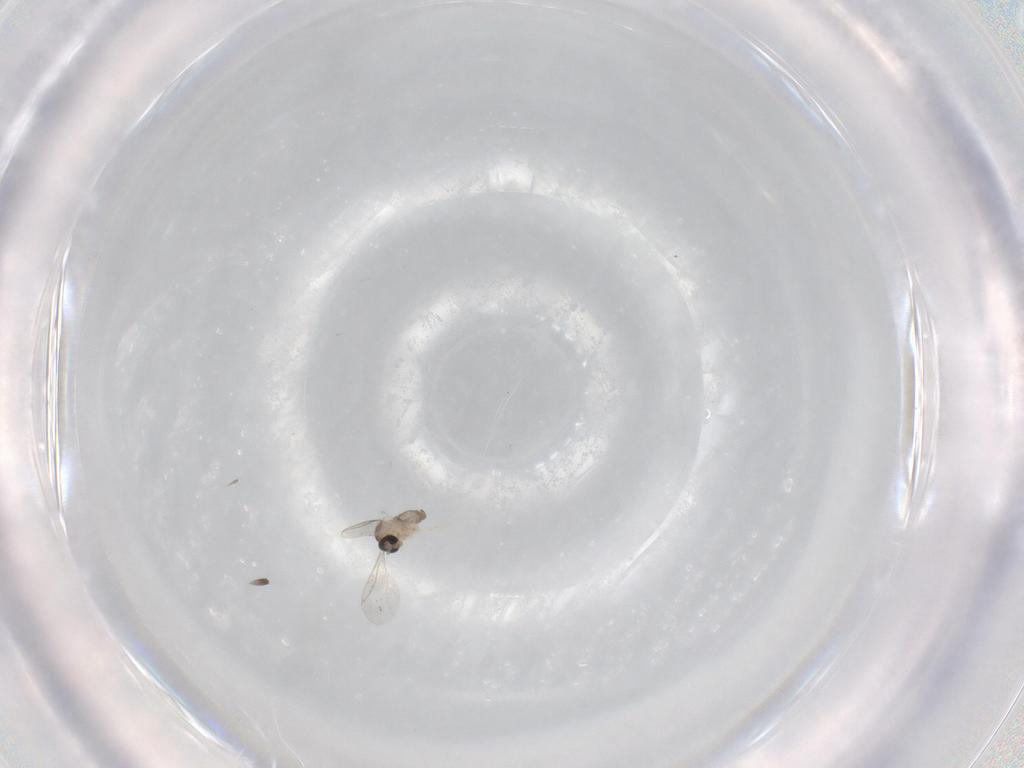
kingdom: Animalia
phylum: Arthropoda
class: Insecta
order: Diptera
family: Cecidomyiidae
